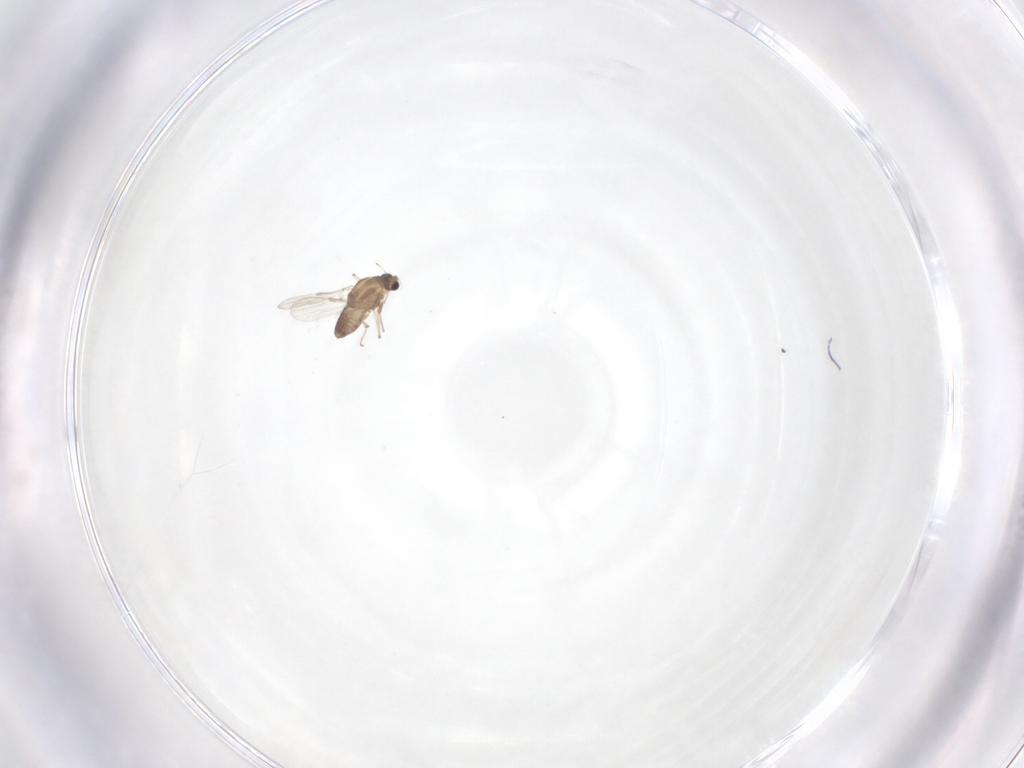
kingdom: Animalia
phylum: Arthropoda
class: Insecta
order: Diptera
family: Chironomidae
